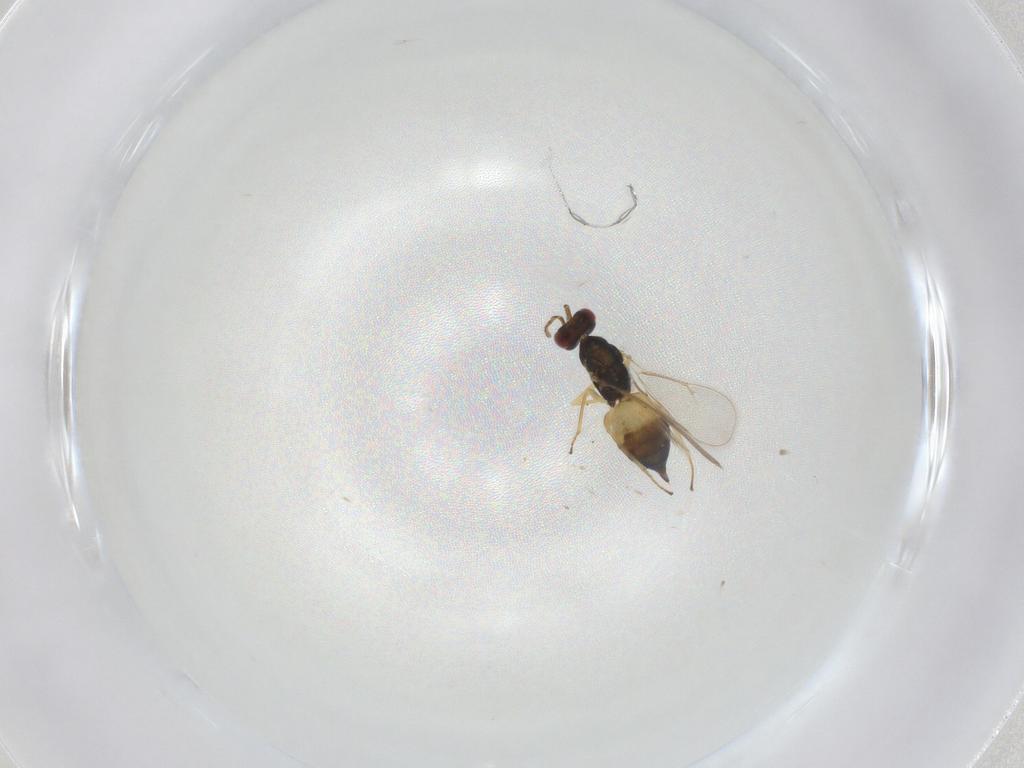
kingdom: Animalia
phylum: Arthropoda
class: Insecta
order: Hymenoptera
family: Eulophidae
